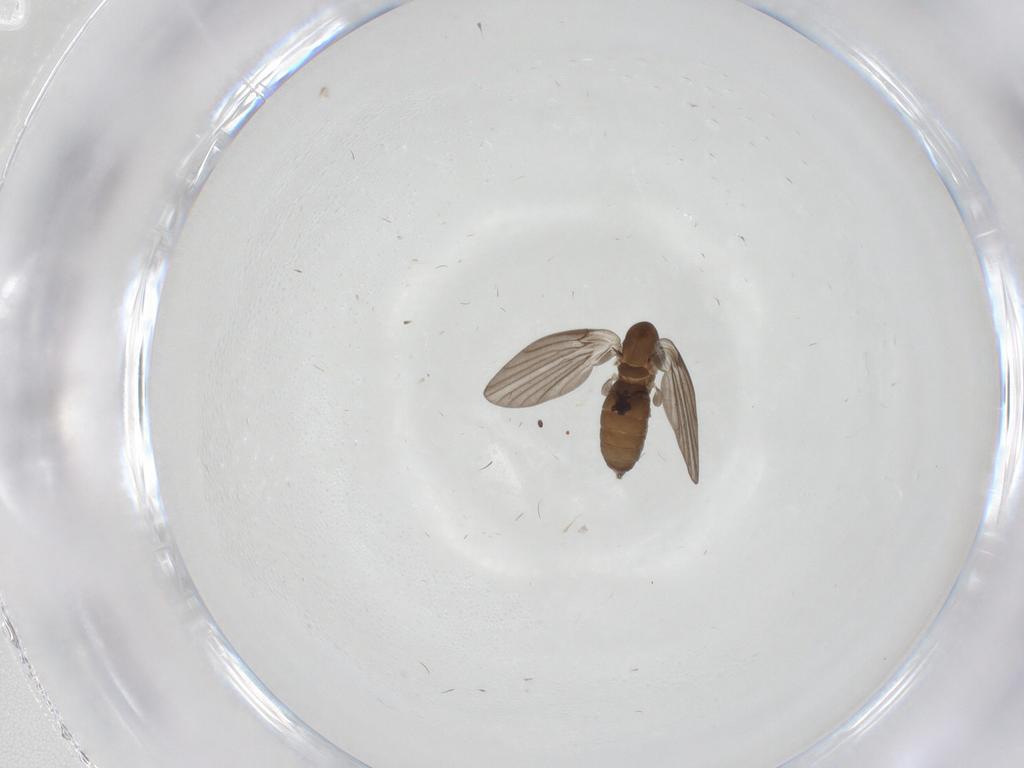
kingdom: Animalia
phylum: Arthropoda
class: Insecta
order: Diptera
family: Psychodidae
